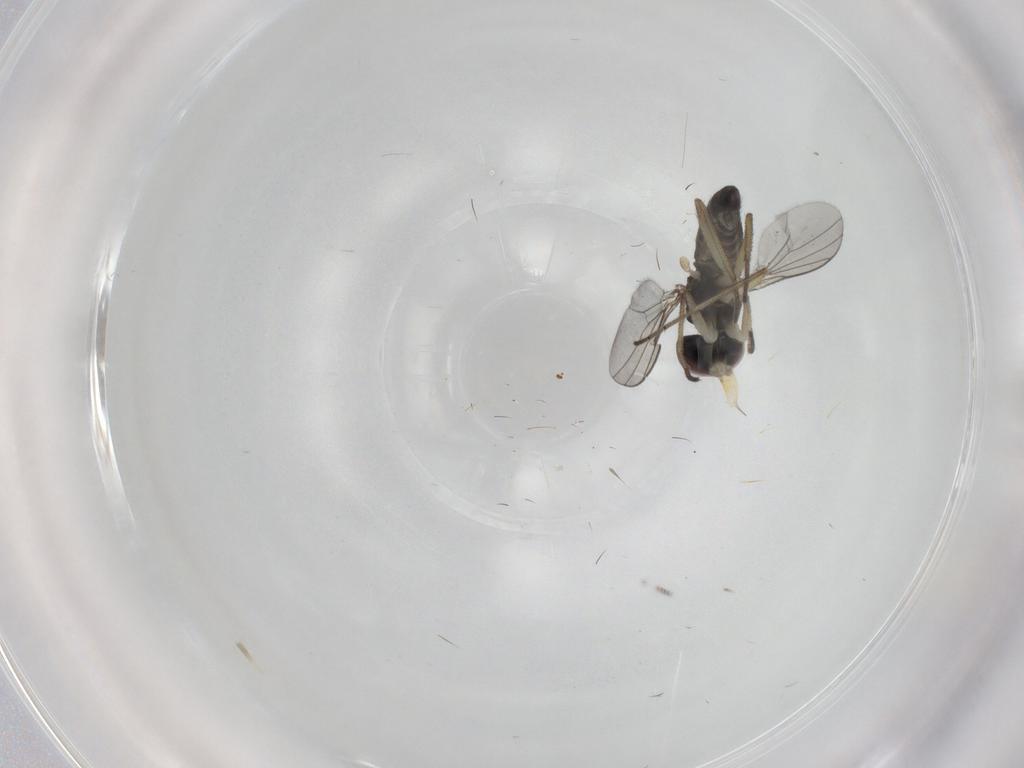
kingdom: Animalia
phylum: Arthropoda
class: Insecta
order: Diptera
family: Dolichopodidae
